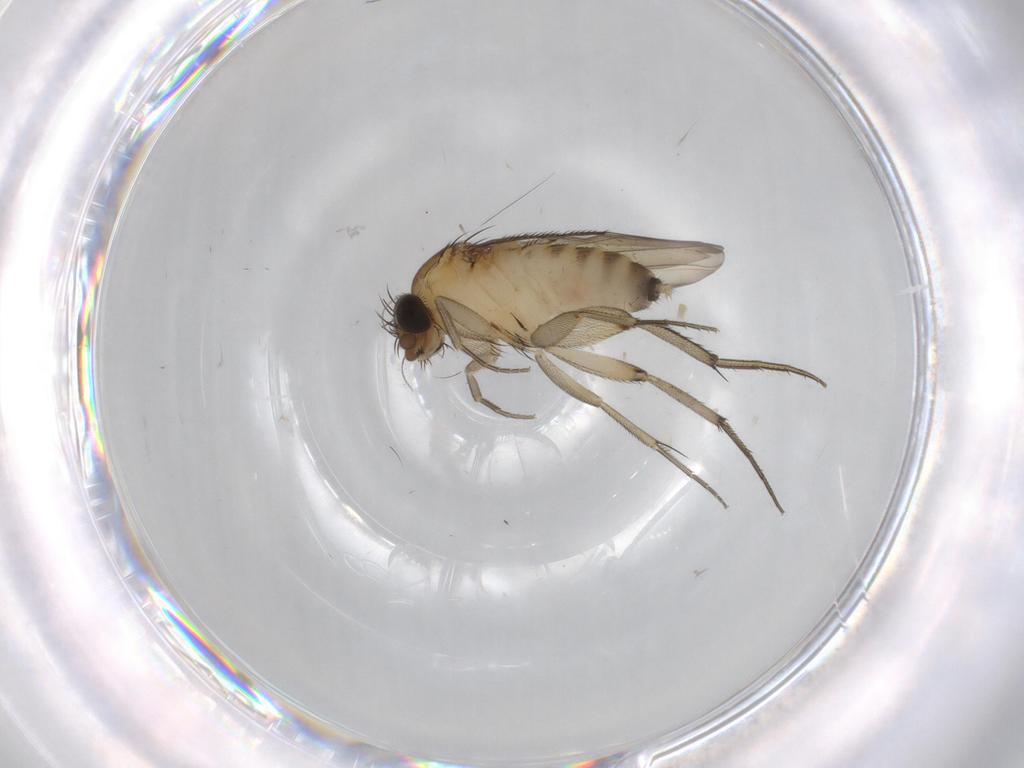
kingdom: Animalia
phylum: Arthropoda
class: Insecta
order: Diptera
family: Phoridae
